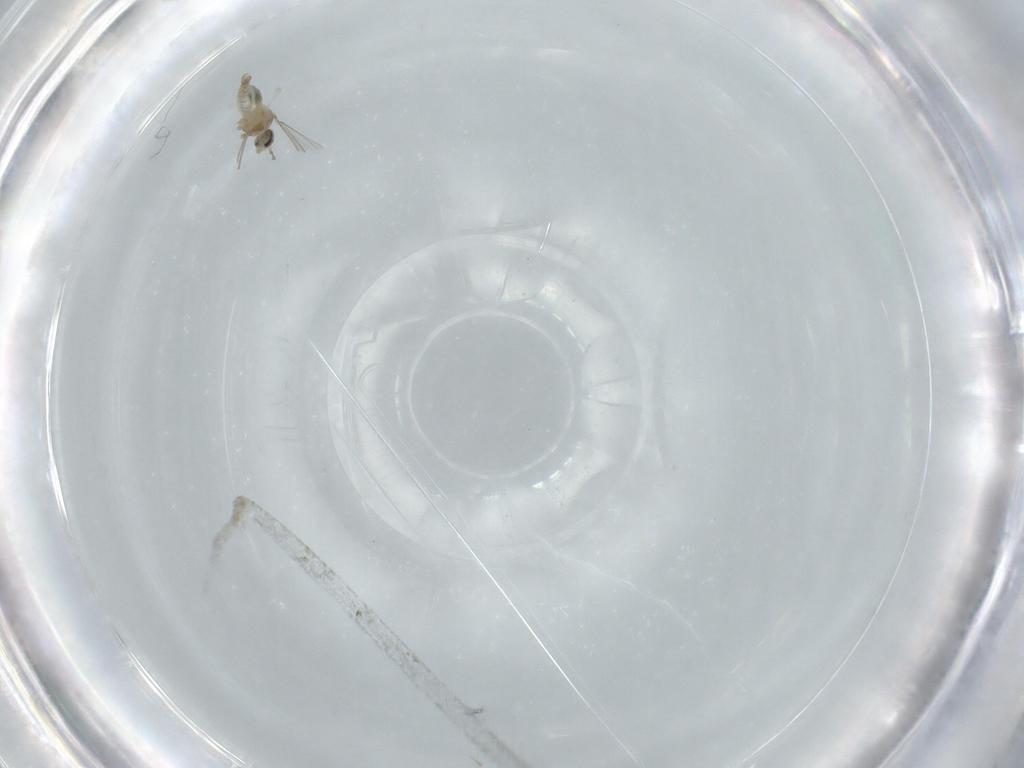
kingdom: Animalia
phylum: Arthropoda
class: Insecta
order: Diptera
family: Cecidomyiidae
